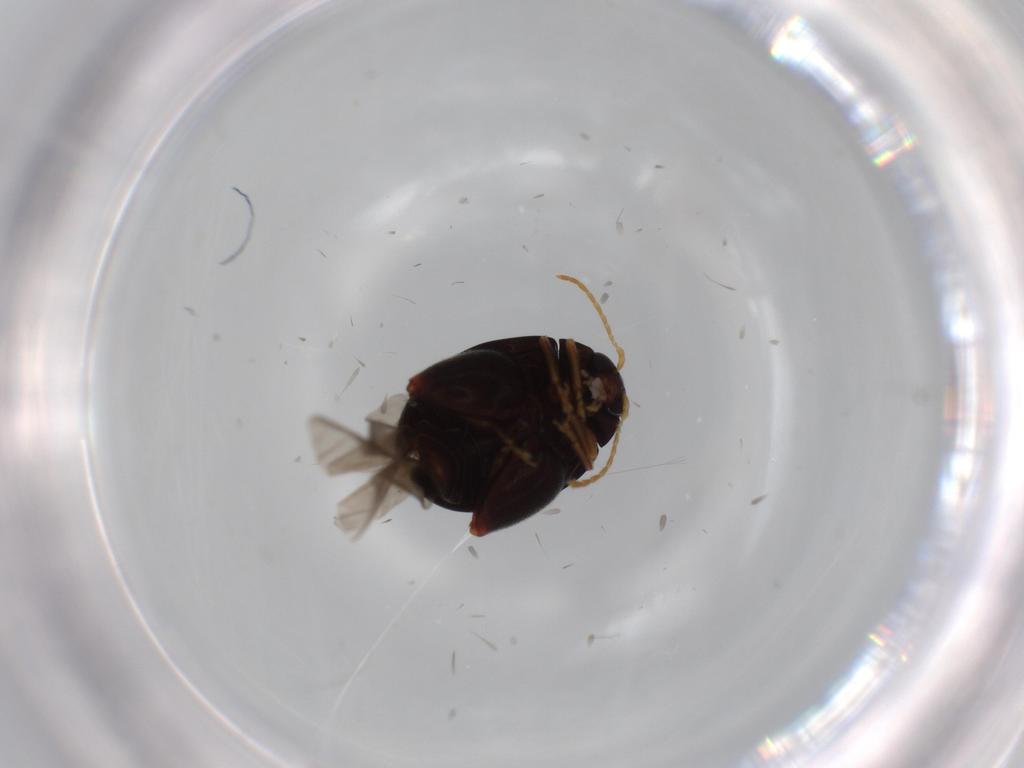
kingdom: Animalia
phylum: Arthropoda
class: Insecta
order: Coleoptera
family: Chrysomelidae
